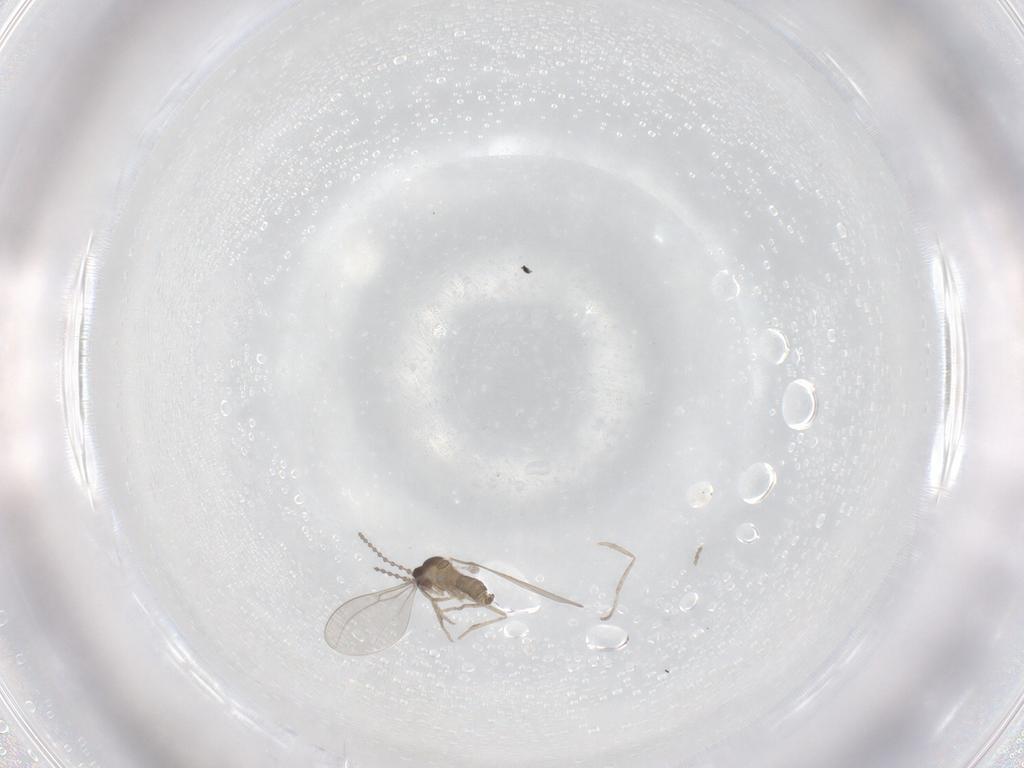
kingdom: Animalia
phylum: Arthropoda
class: Insecta
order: Diptera
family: Cecidomyiidae
